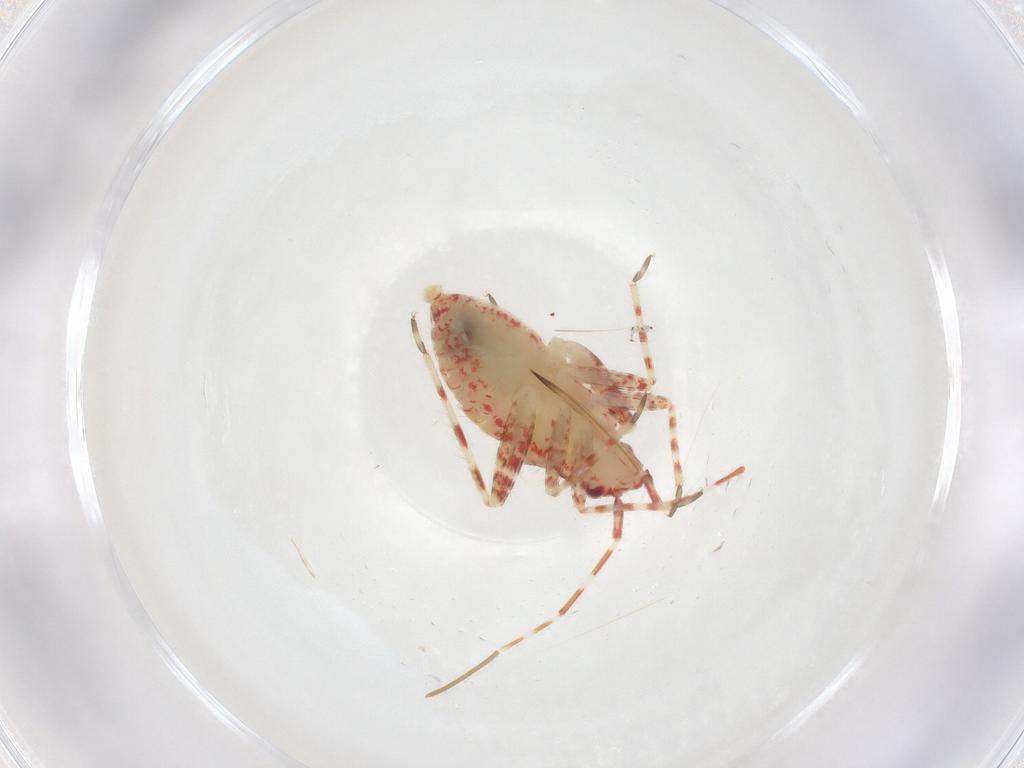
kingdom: Animalia
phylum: Arthropoda
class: Insecta
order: Hemiptera
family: Miridae
